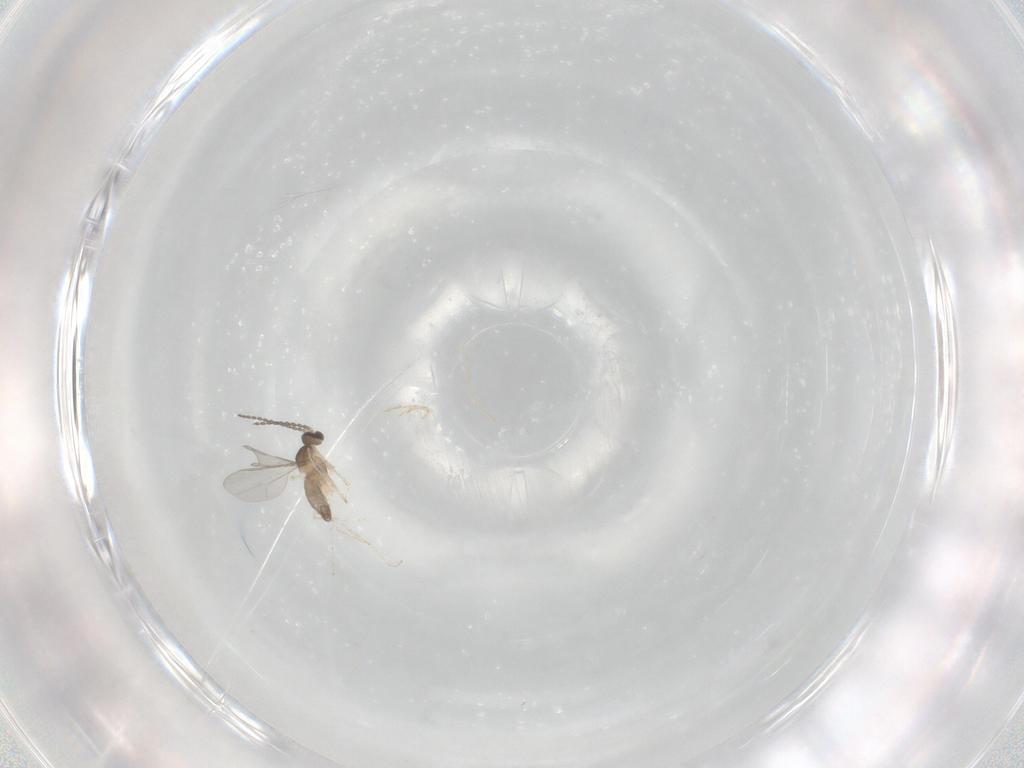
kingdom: Animalia
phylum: Arthropoda
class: Insecta
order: Diptera
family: Cecidomyiidae
